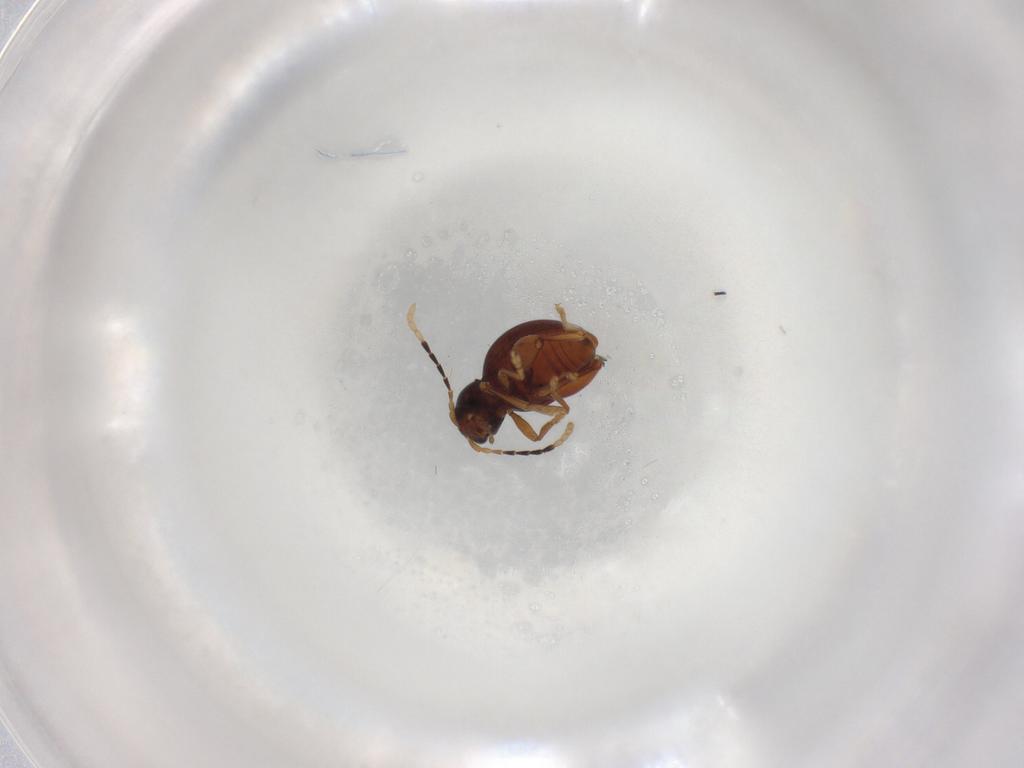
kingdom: Animalia
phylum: Arthropoda
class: Insecta
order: Coleoptera
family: Chrysomelidae
